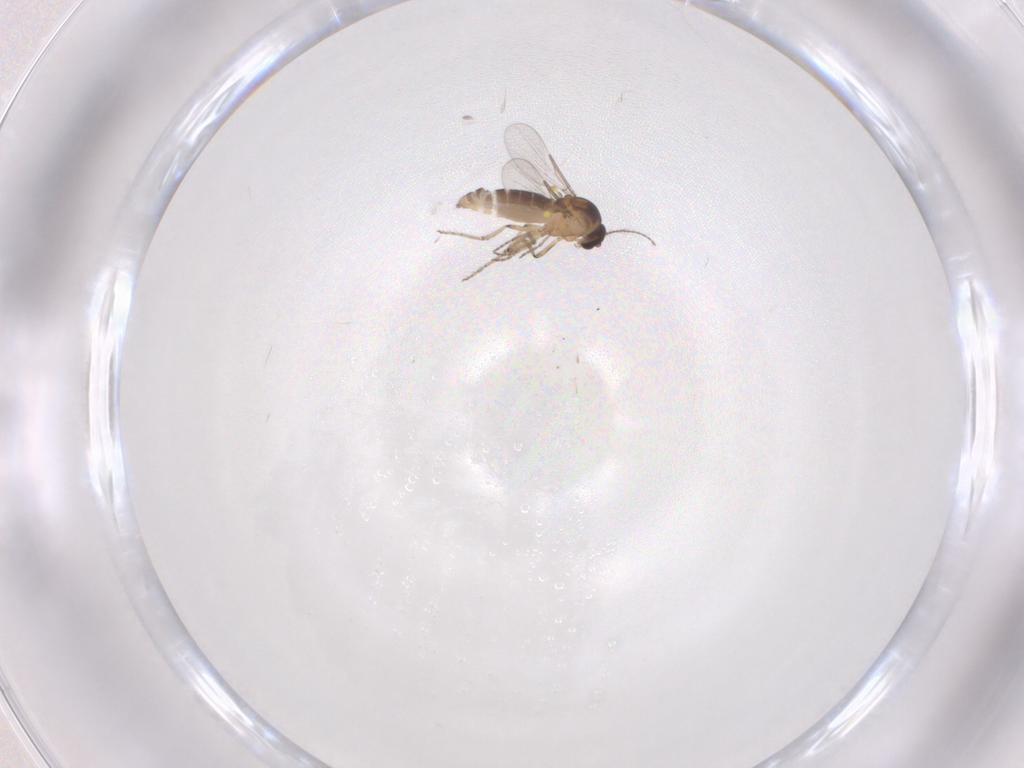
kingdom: Animalia
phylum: Arthropoda
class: Insecta
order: Diptera
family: Ceratopogonidae
